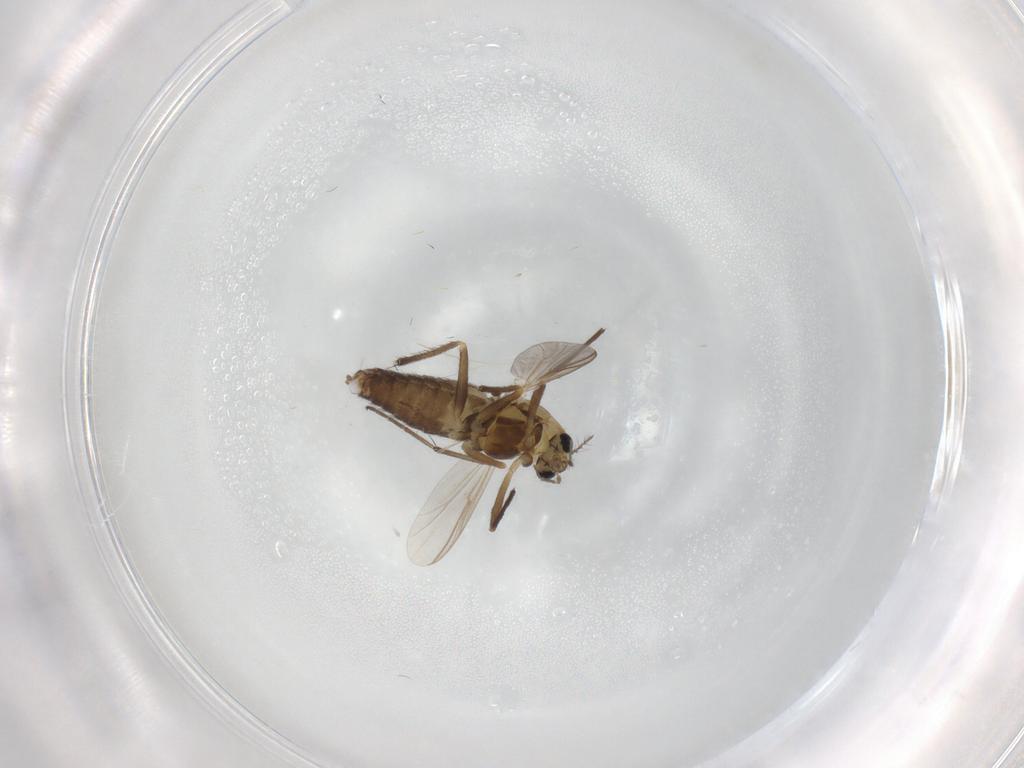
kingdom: Animalia
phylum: Arthropoda
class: Insecta
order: Diptera
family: Chironomidae
